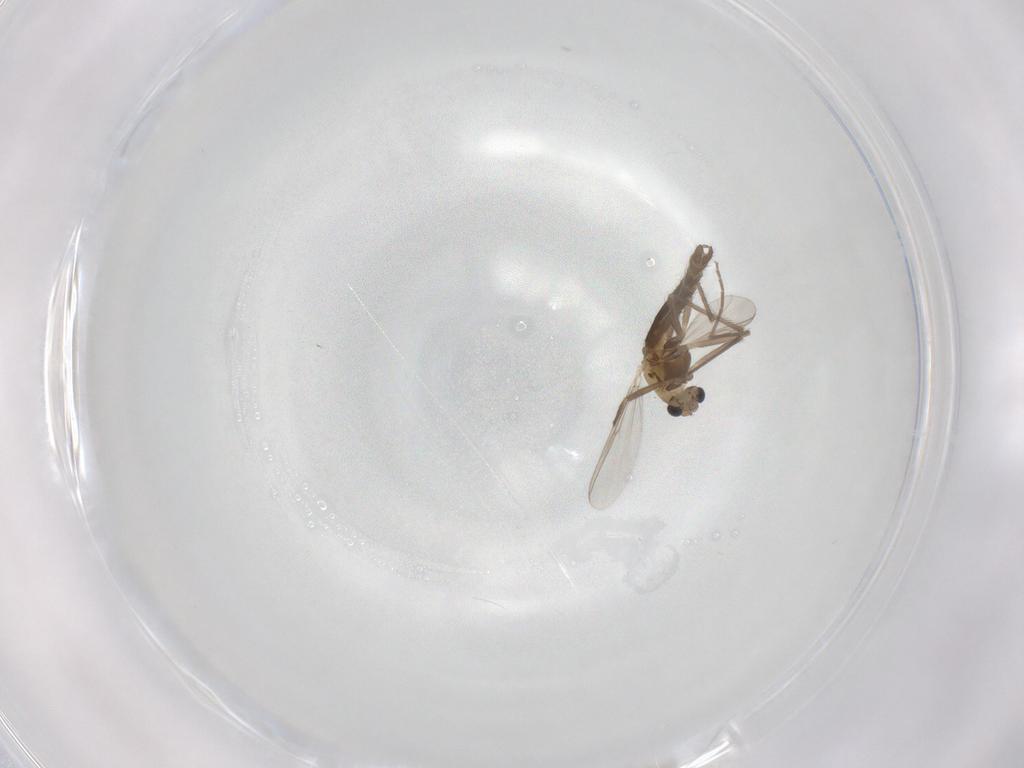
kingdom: Animalia
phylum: Arthropoda
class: Insecta
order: Diptera
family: Chironomidae
